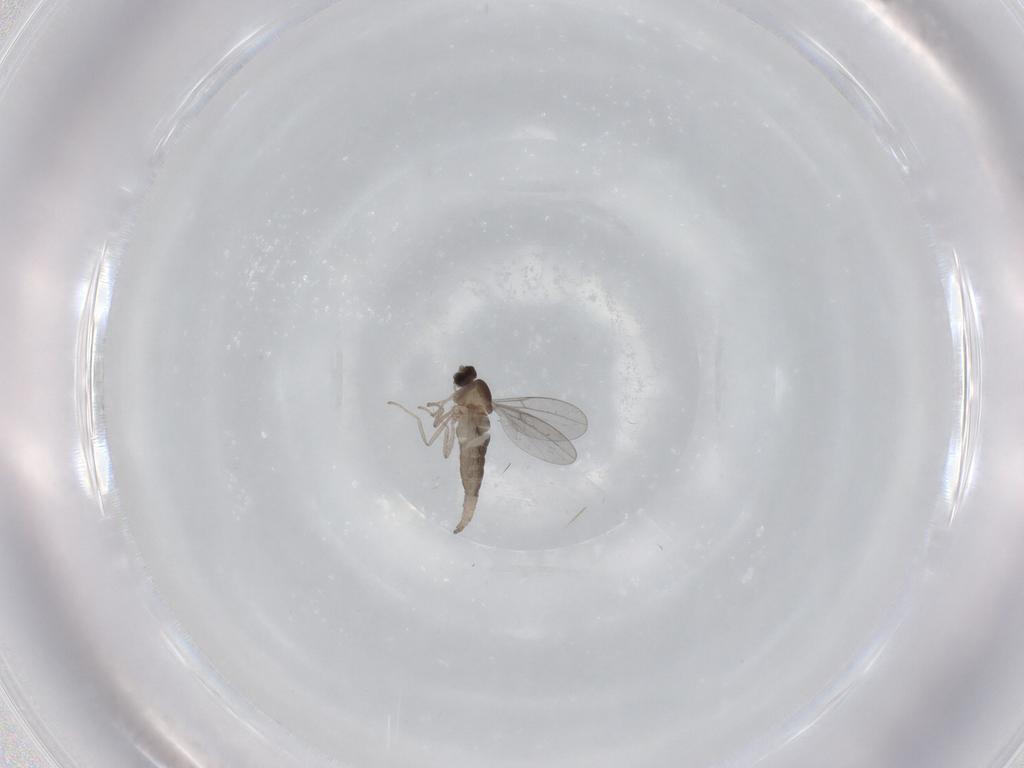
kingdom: Animalia
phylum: Arthropoda
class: Insecta
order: Diptera
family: Cecidomyiidae
